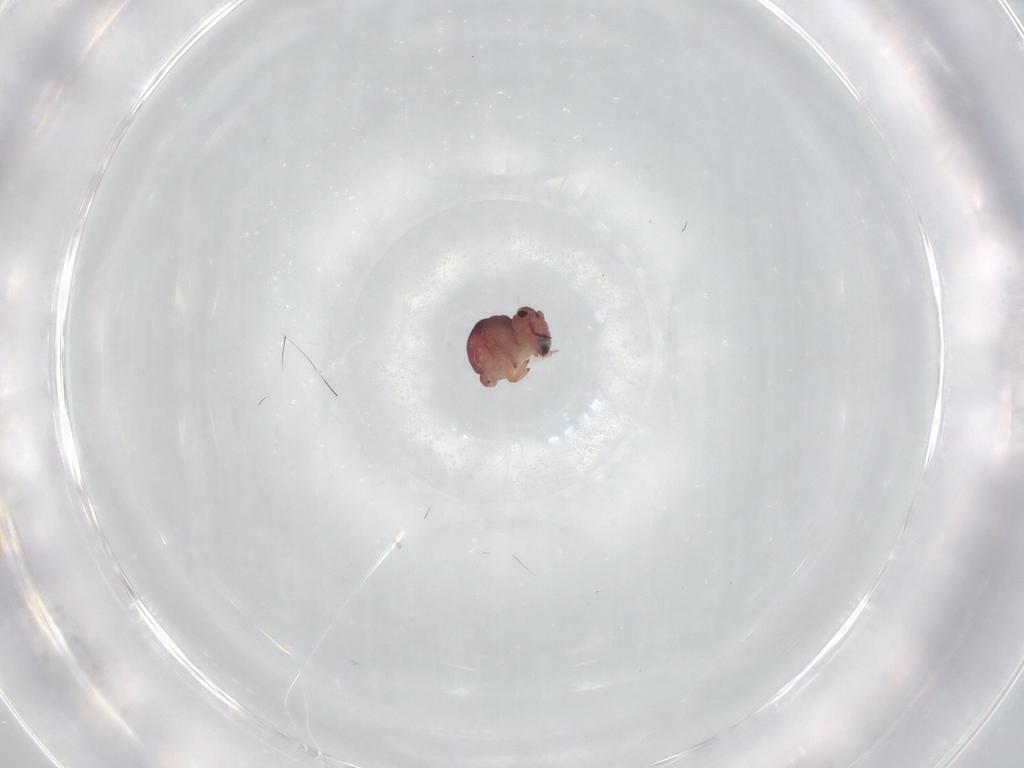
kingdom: Animalia
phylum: Arthropoda
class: Collembola
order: Symphypleona
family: Sminthurididae
